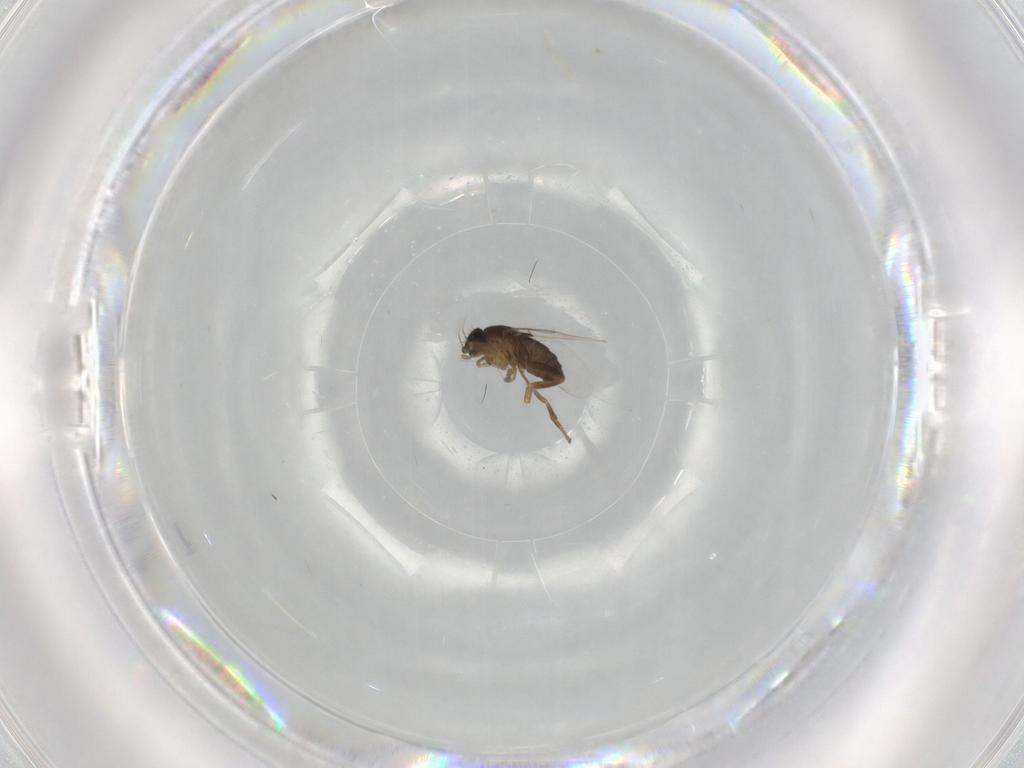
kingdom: Animalia
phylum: Arthropoda
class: Insecta
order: Diptera
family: Phoridae
